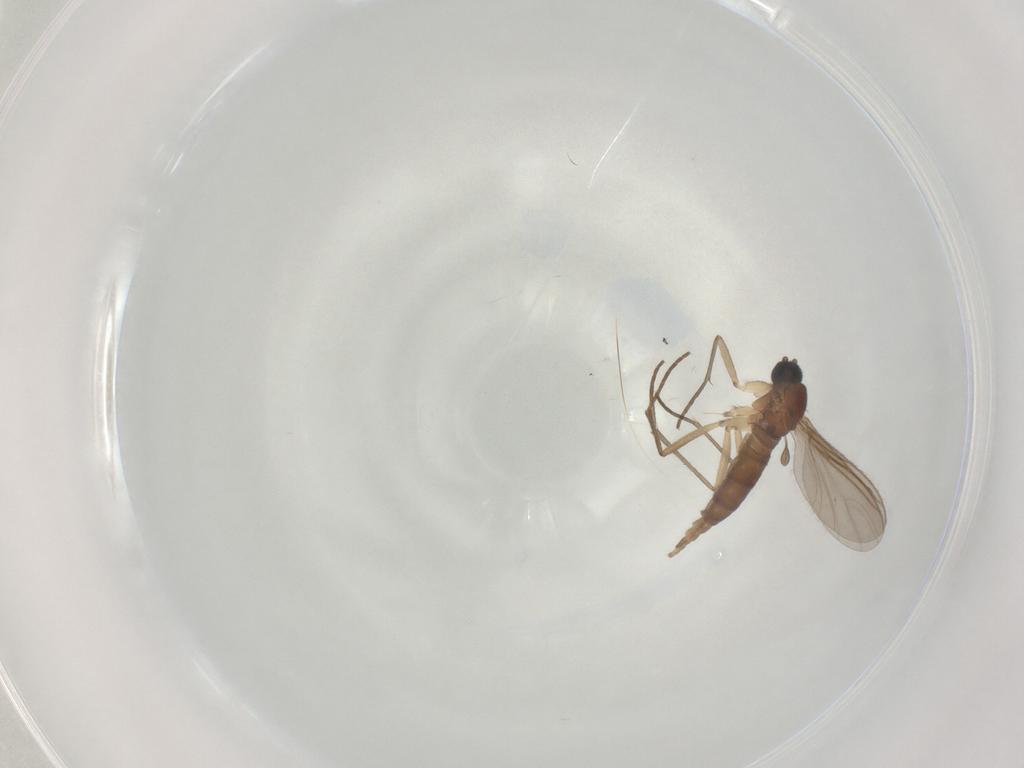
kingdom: Animalia
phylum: Arthropoda
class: Insecta
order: Diptera
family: Sciaridae
